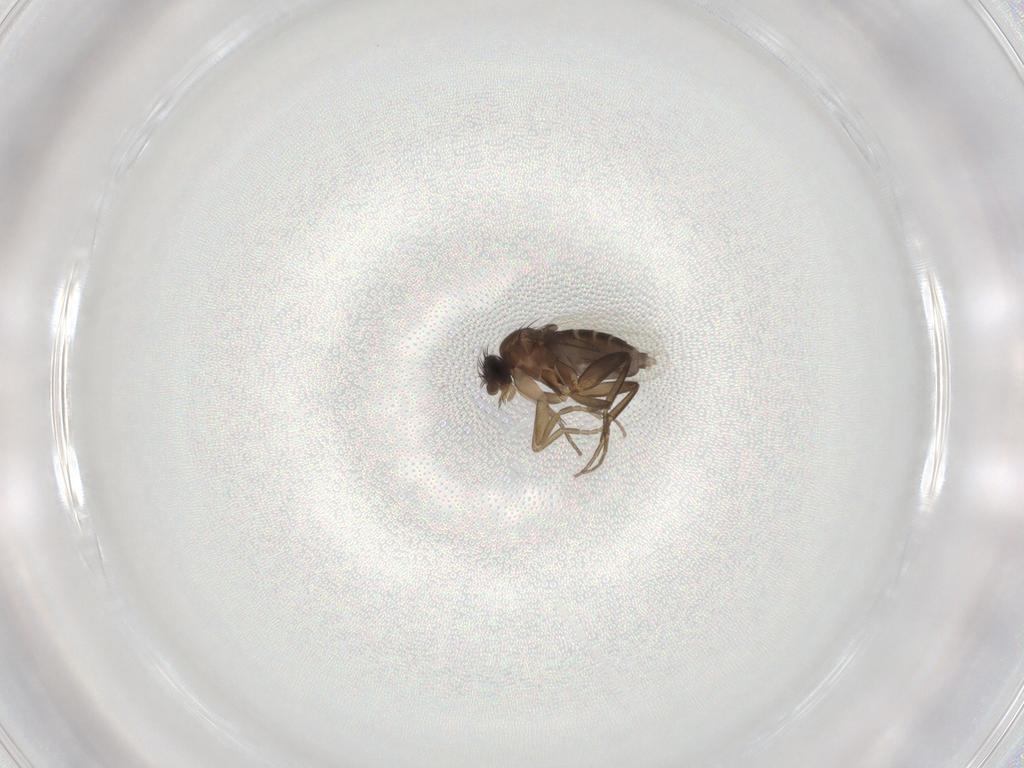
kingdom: Animalia
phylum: Arthropoda
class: Insecta
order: Diptera
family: Phoridae
